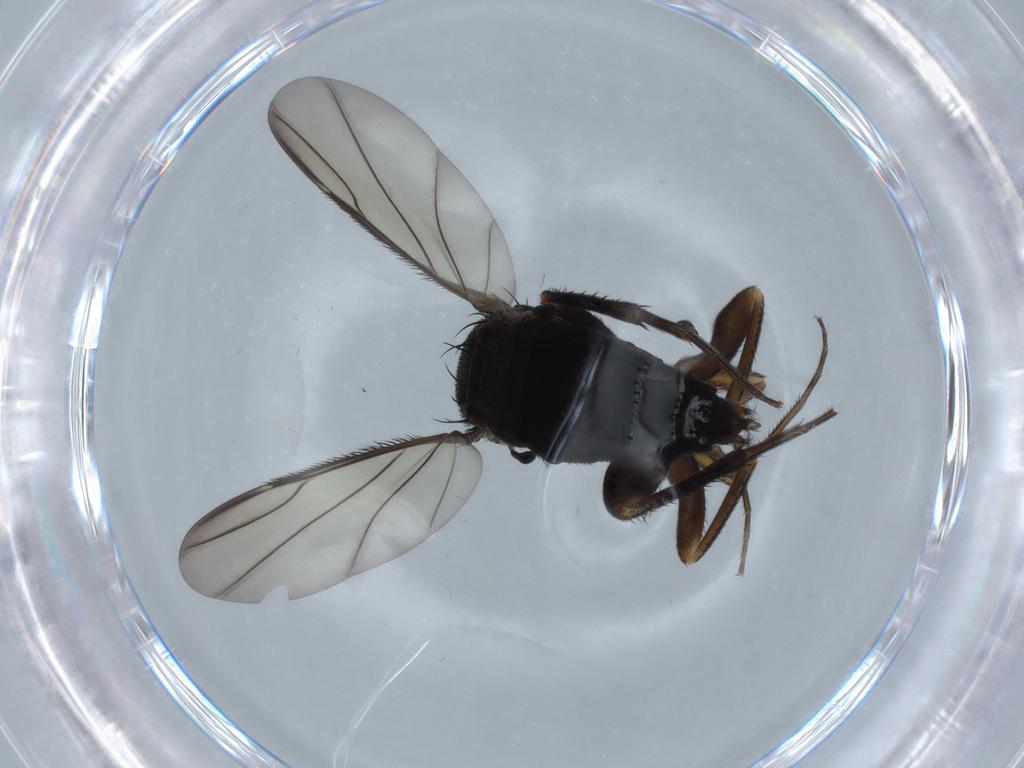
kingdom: Animalia
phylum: Arthropoda
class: Insecta
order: Diptera
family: Phoridae
